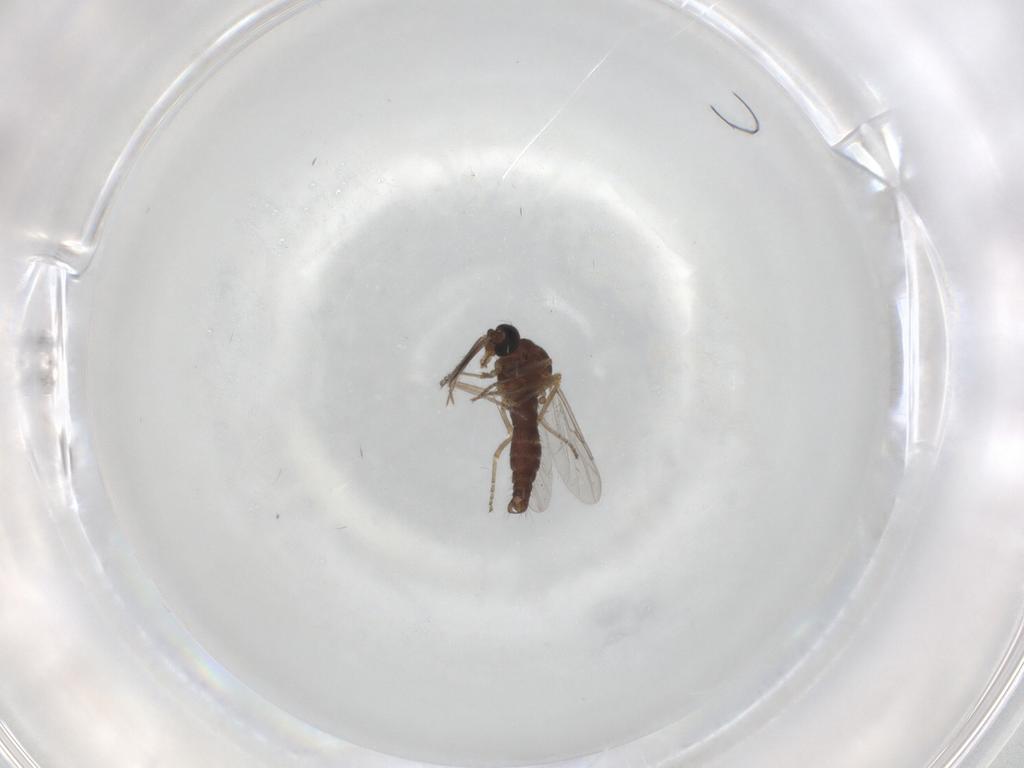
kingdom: Animalia
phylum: Arthropoda
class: Insecta
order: Diptera
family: Ceratopogonidae
